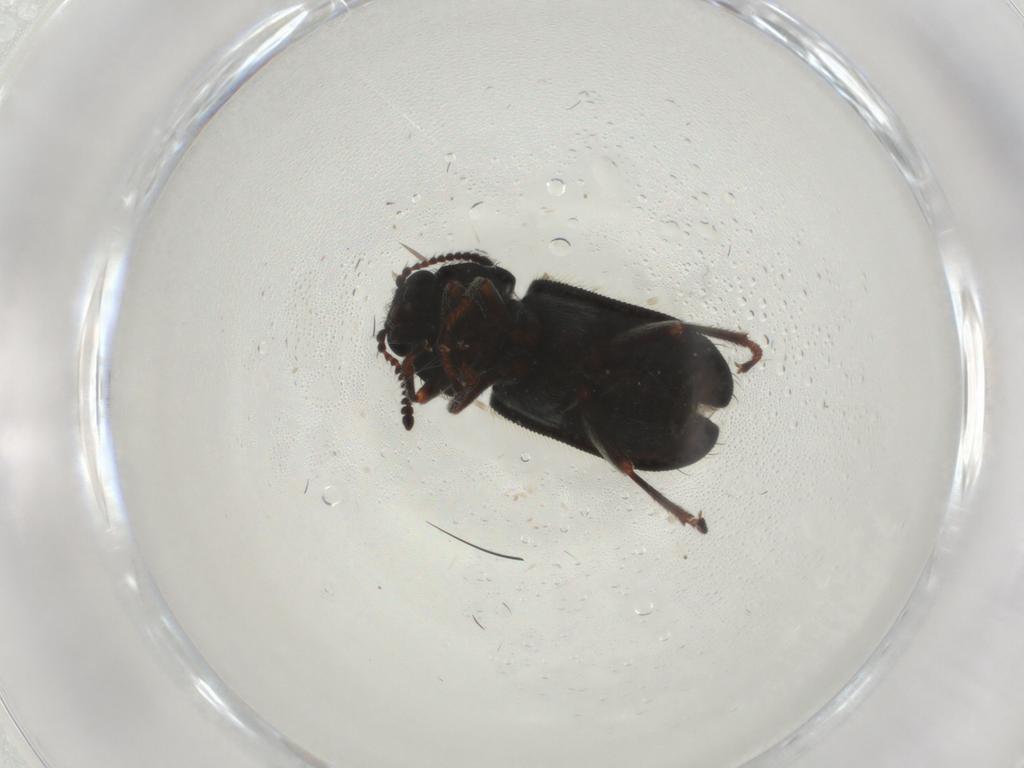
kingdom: Animalia
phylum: Arthropoda
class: Insecta
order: Coleoptera
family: Melyridae
